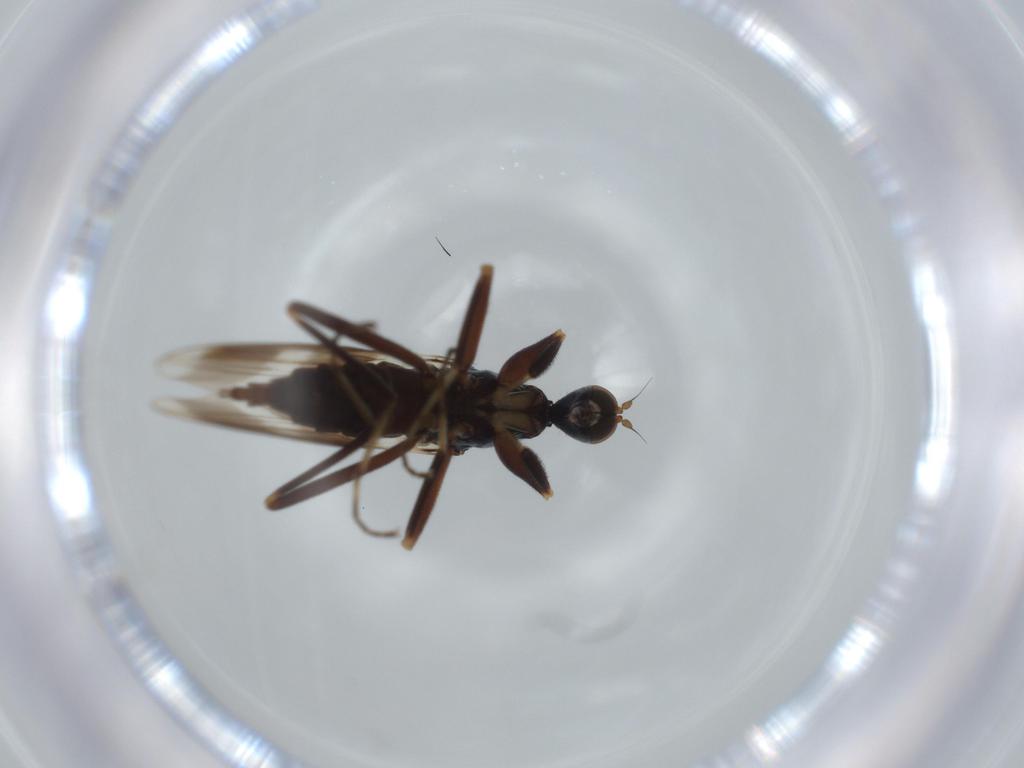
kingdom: Animalia
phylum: Arthropoda
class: Insecta
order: Diptera
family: Hybotidae
